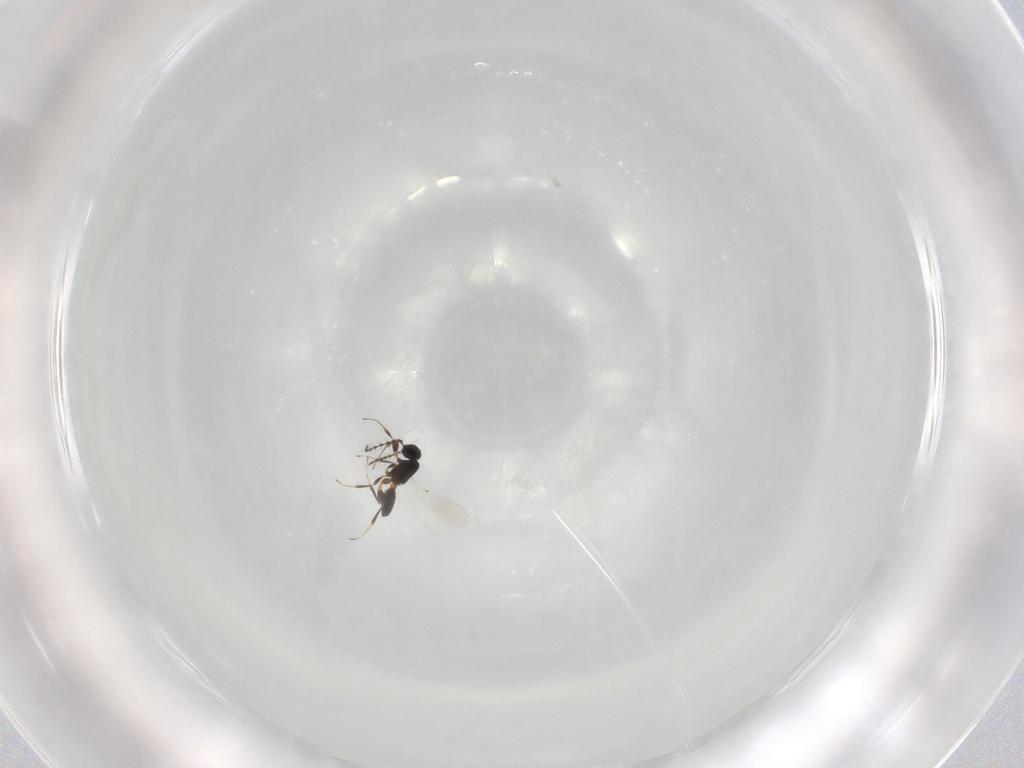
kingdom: Animalia
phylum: Arthropoda
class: Insecta
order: Hymenoptera
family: Platygastridae
